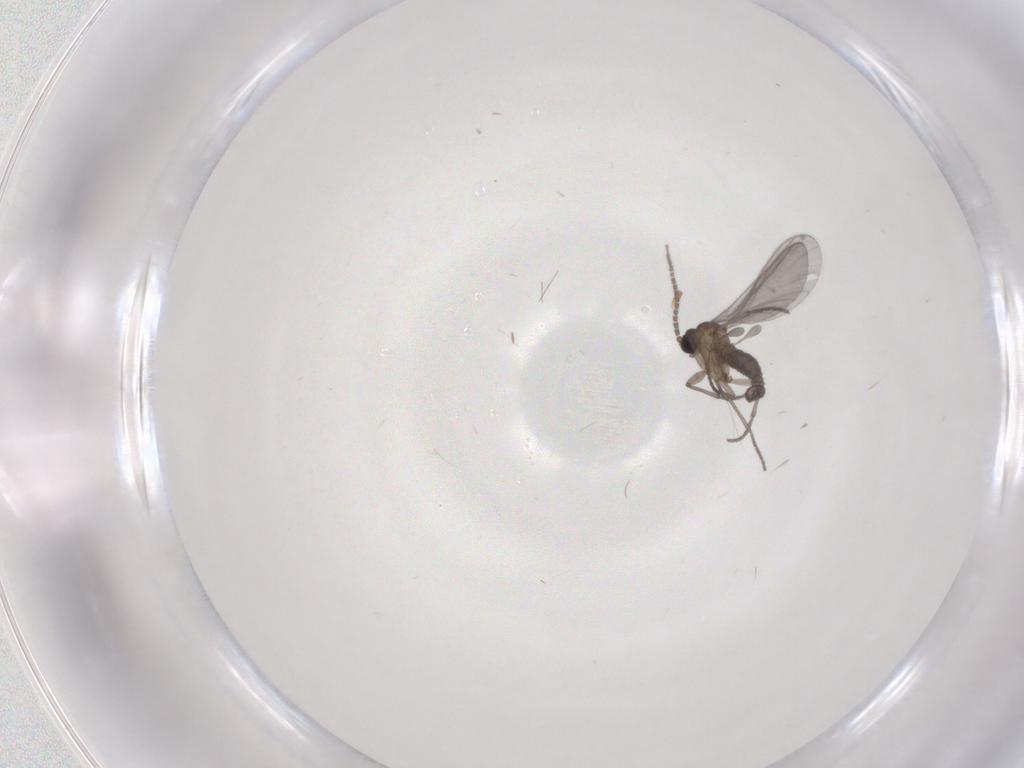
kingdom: Animalia
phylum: Arthropoda
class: Insecta
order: Diptera
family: Sciaridae
